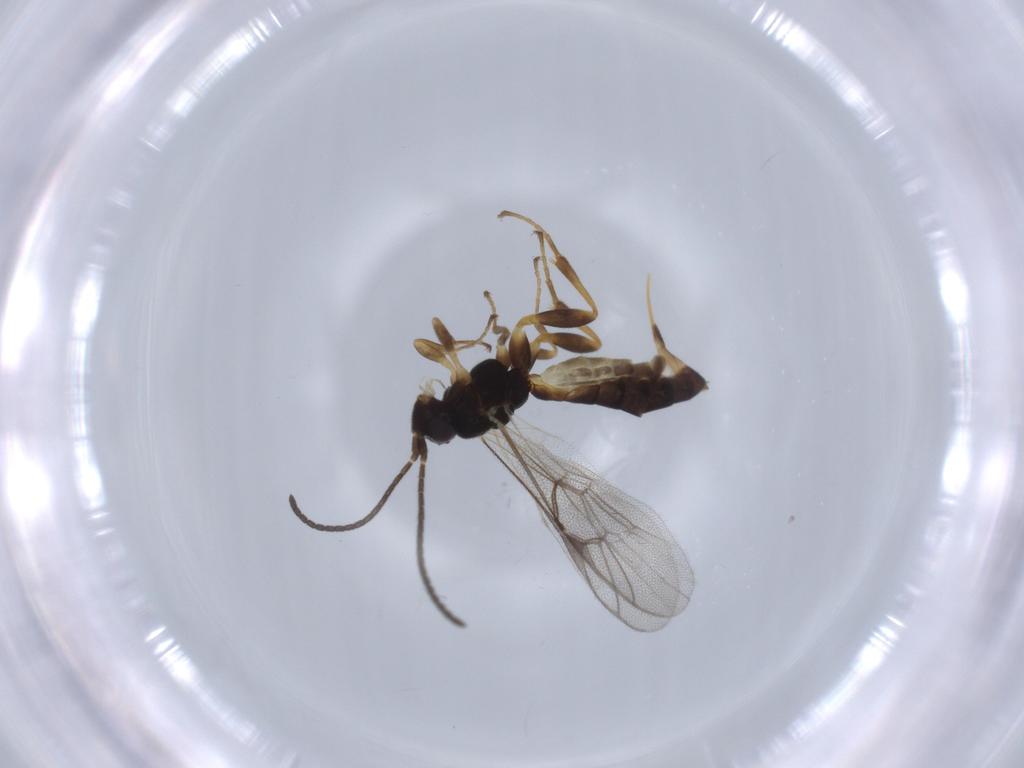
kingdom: Animalia
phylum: Arthropoda
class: Insecta
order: Hymenoptera
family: Ichneumonidae
